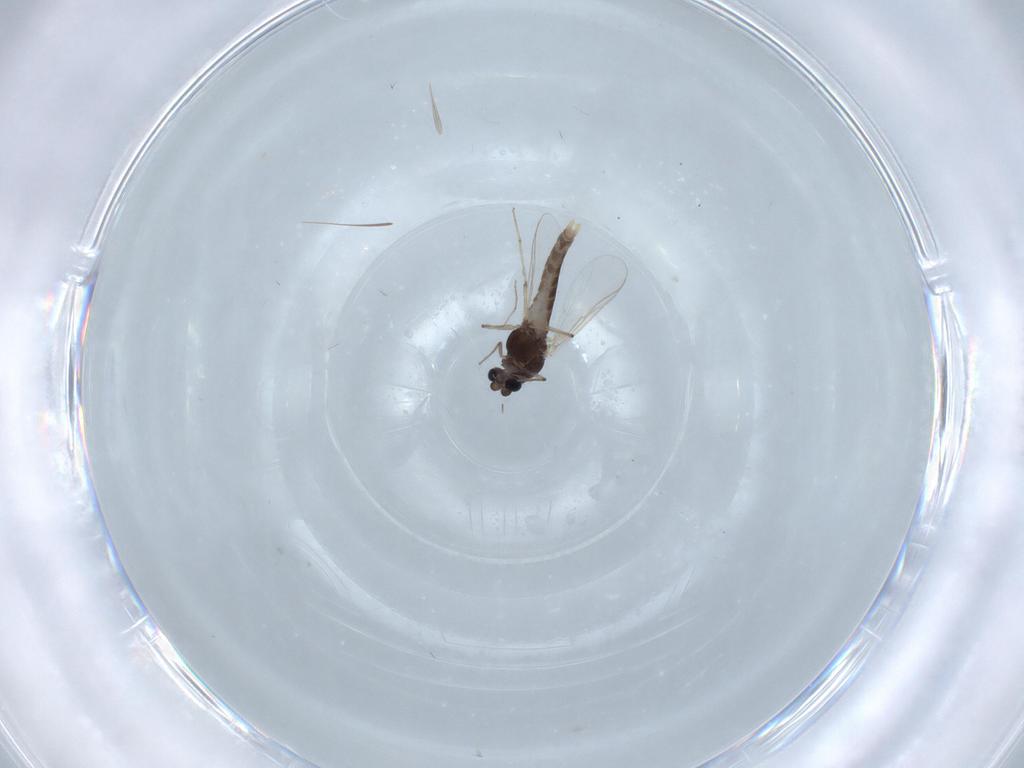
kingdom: Animalia
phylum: Arthropoda
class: Insecta
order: Diptera
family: Chironomidae
